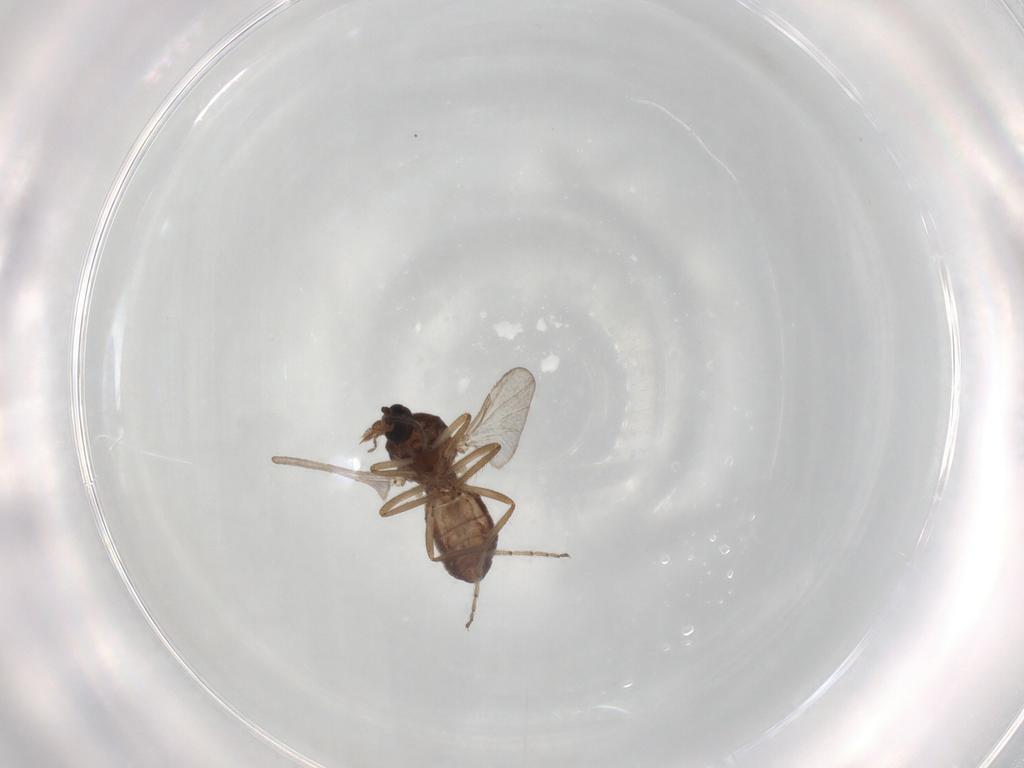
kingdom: Animalia
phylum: Arthropoda
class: Insecta
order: Diptera
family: Ceratopogonidae
